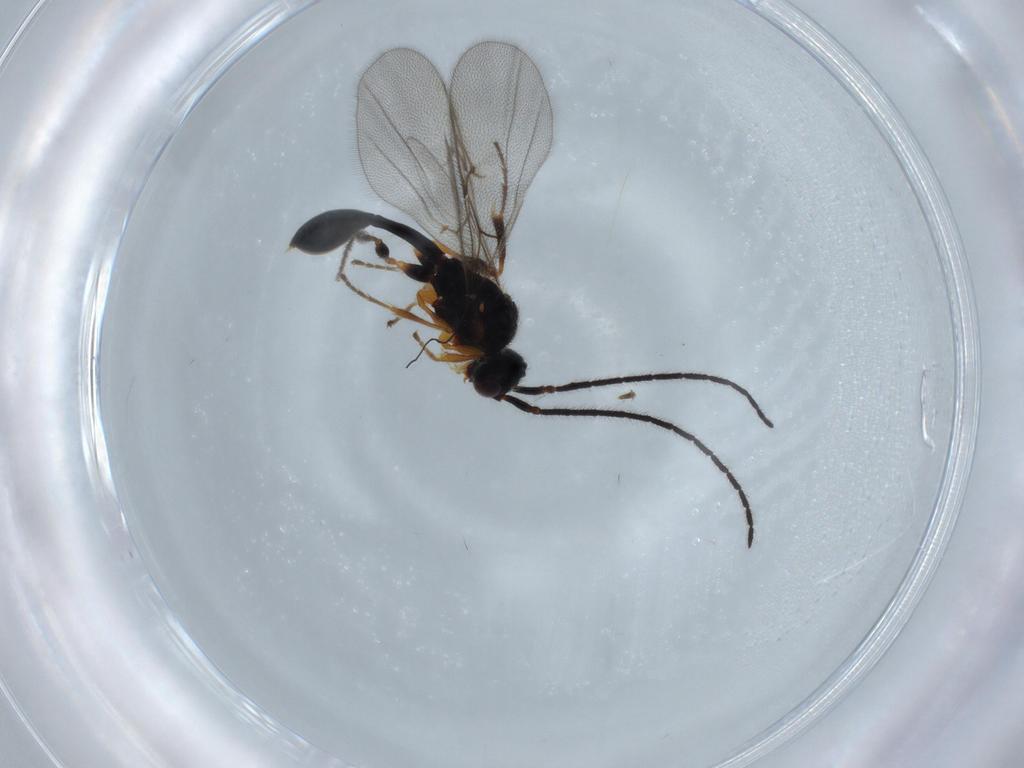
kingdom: Animalia
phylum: Arthropoda
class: Insecta
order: Hymenoptera
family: Diapriidae
